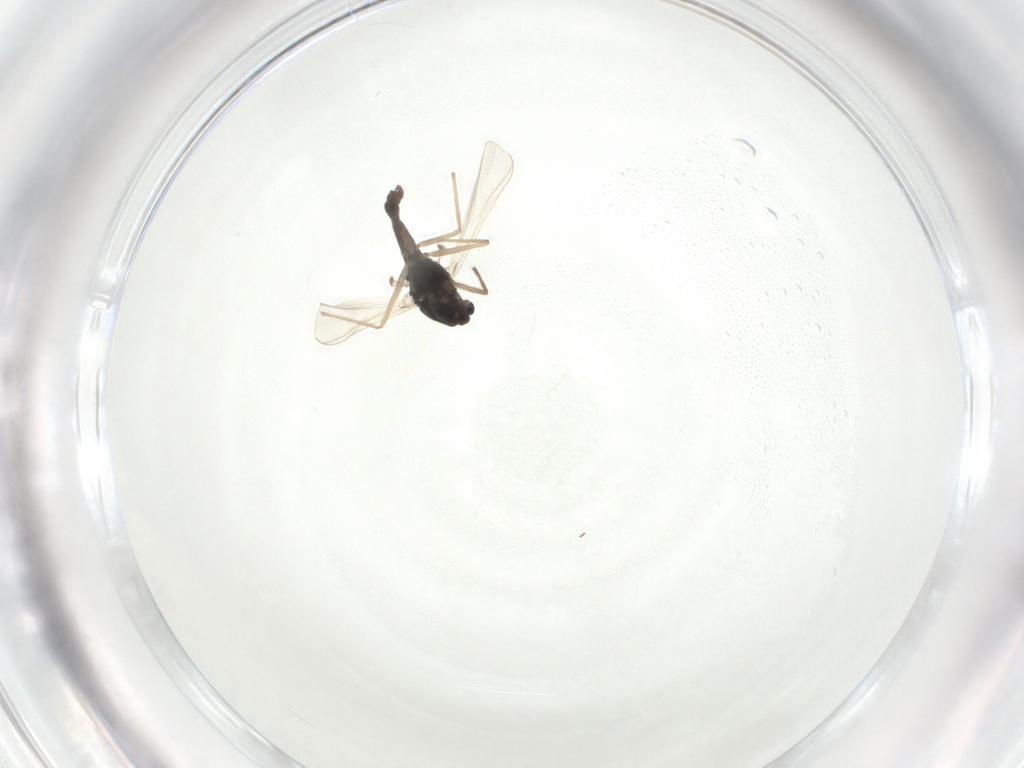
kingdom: Animalia
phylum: Arthropoda
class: Insecta
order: Diptera
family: Chironomidae
